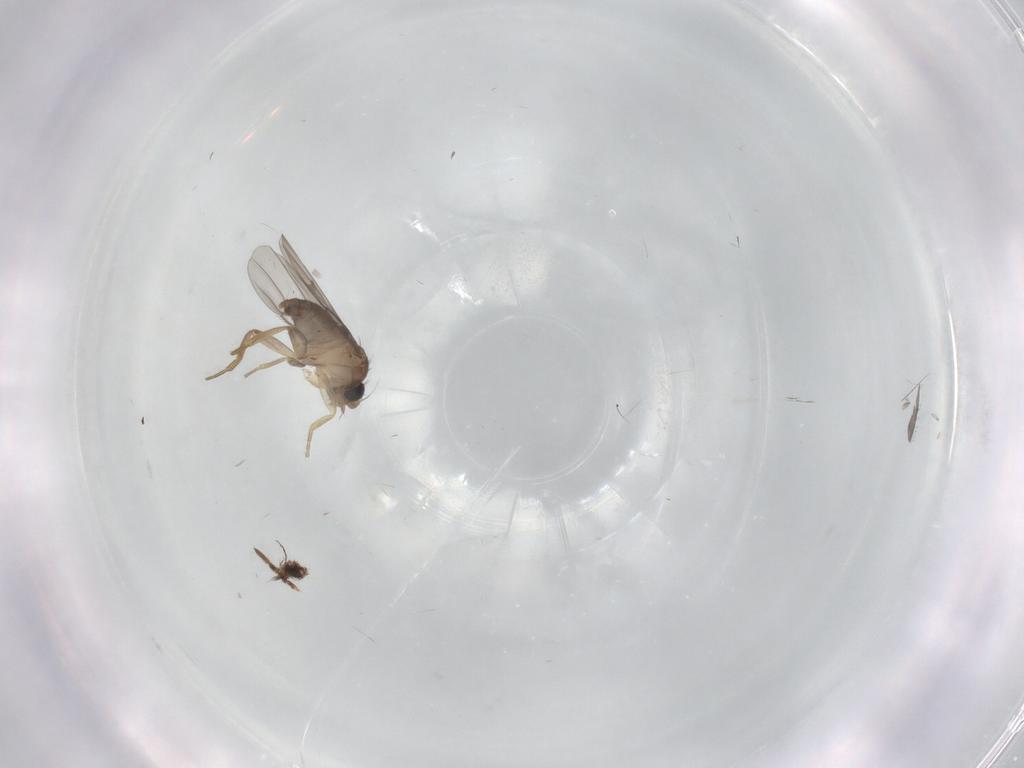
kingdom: Animalia
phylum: Arthropoda
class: Insecta
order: Diptera
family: Phoridae
